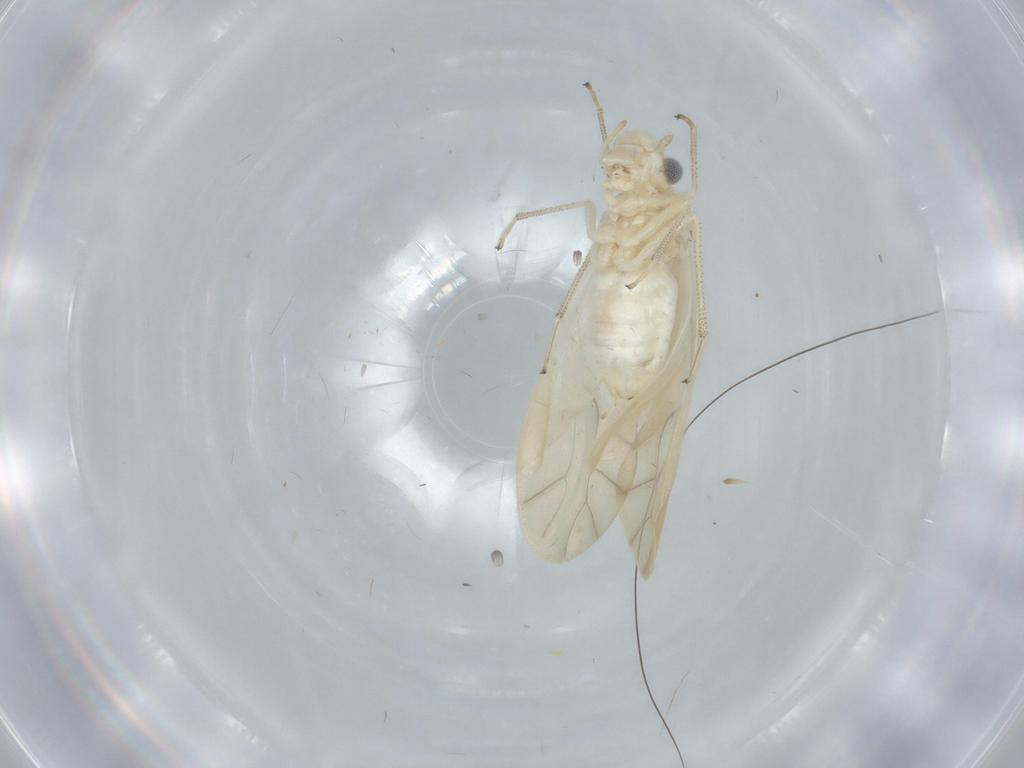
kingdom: Animalia
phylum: Arthropoda
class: Insecta
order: Psocodea
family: Caeciliusidae
